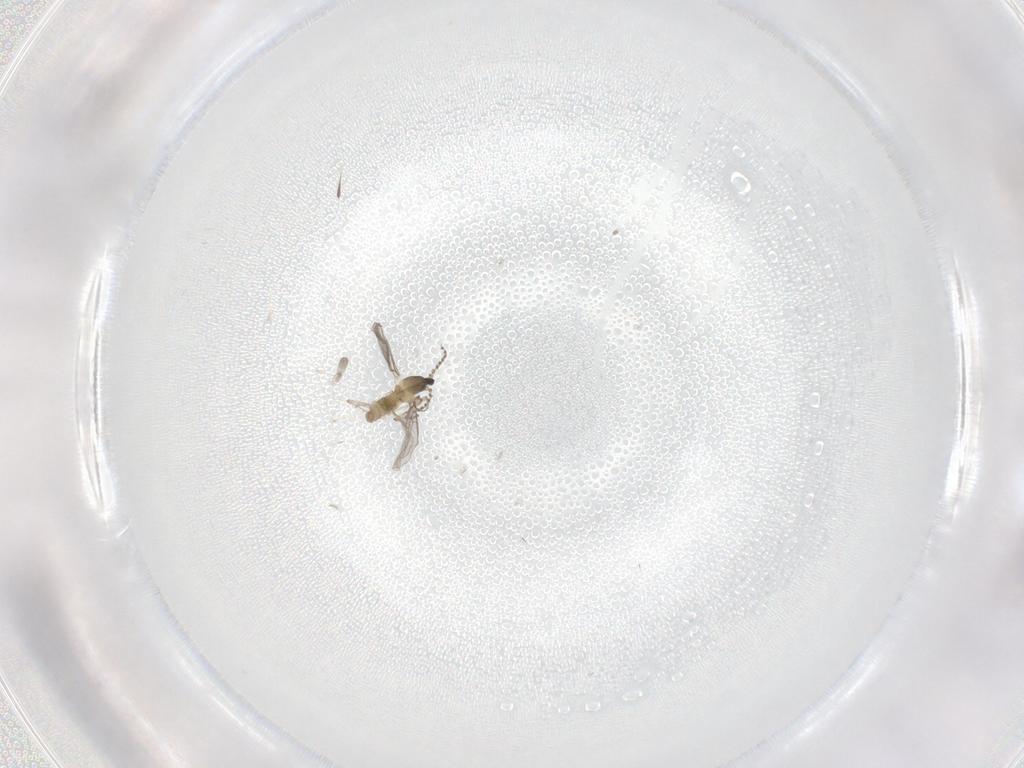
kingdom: Animalia
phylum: Arthropoda
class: Insecta
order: Diptera
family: Cecidomyiidae
